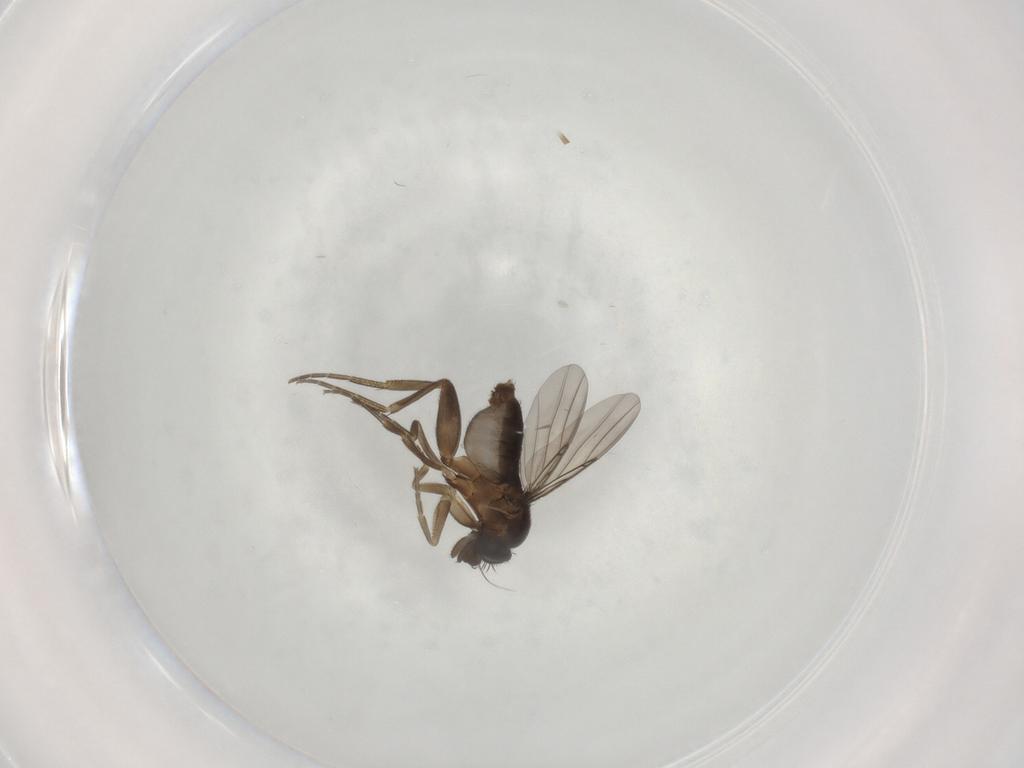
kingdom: Animalia
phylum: Arthropoda
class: Insecta
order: Diptera
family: Phoridae
